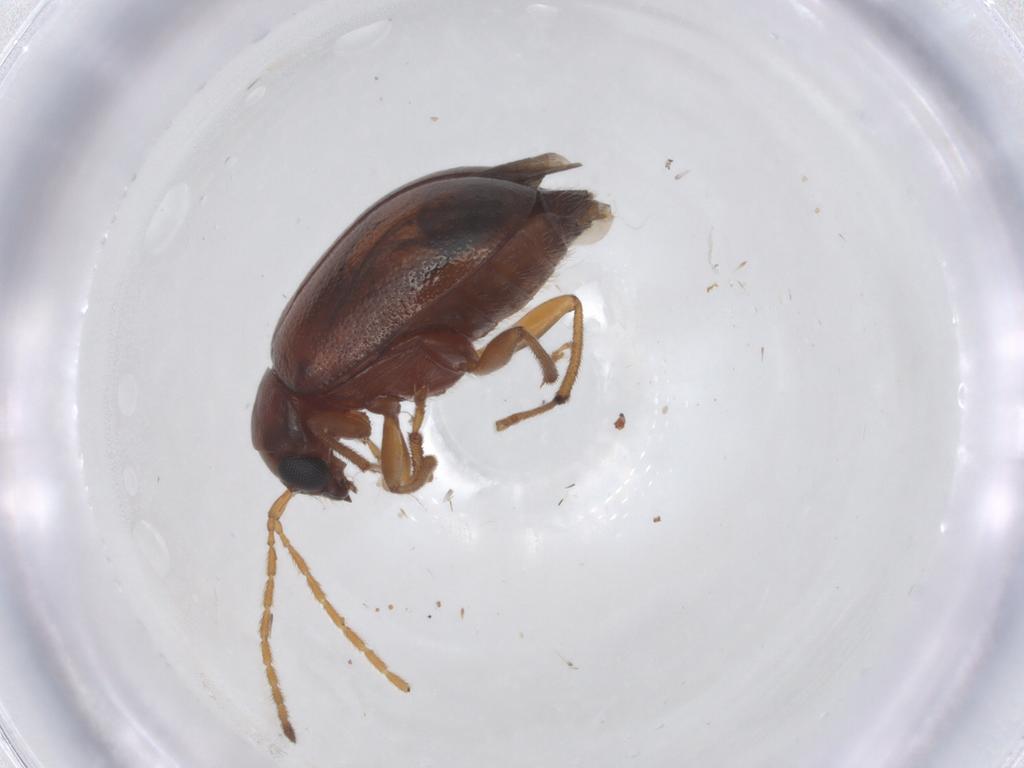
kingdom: Animalia
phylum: Arthropoda
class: Insecta
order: Coleoptera
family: Chrysomelidae
